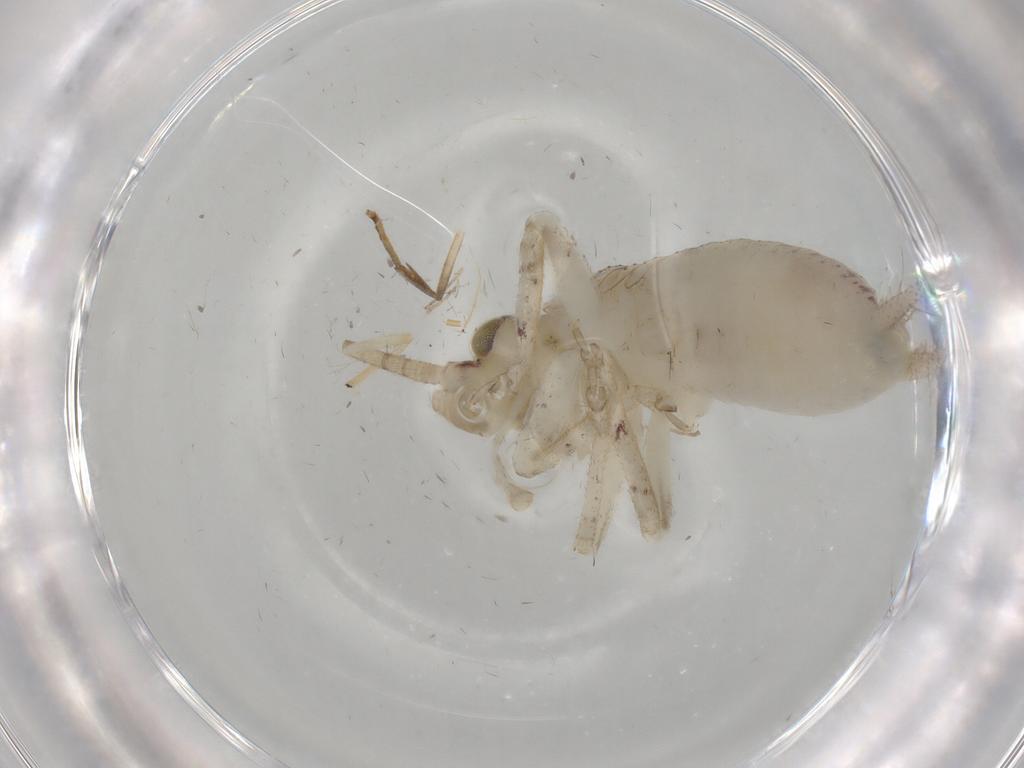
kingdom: Animalia
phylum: Arthropoda
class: Insecta
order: Orthoptera
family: Gryllidae
